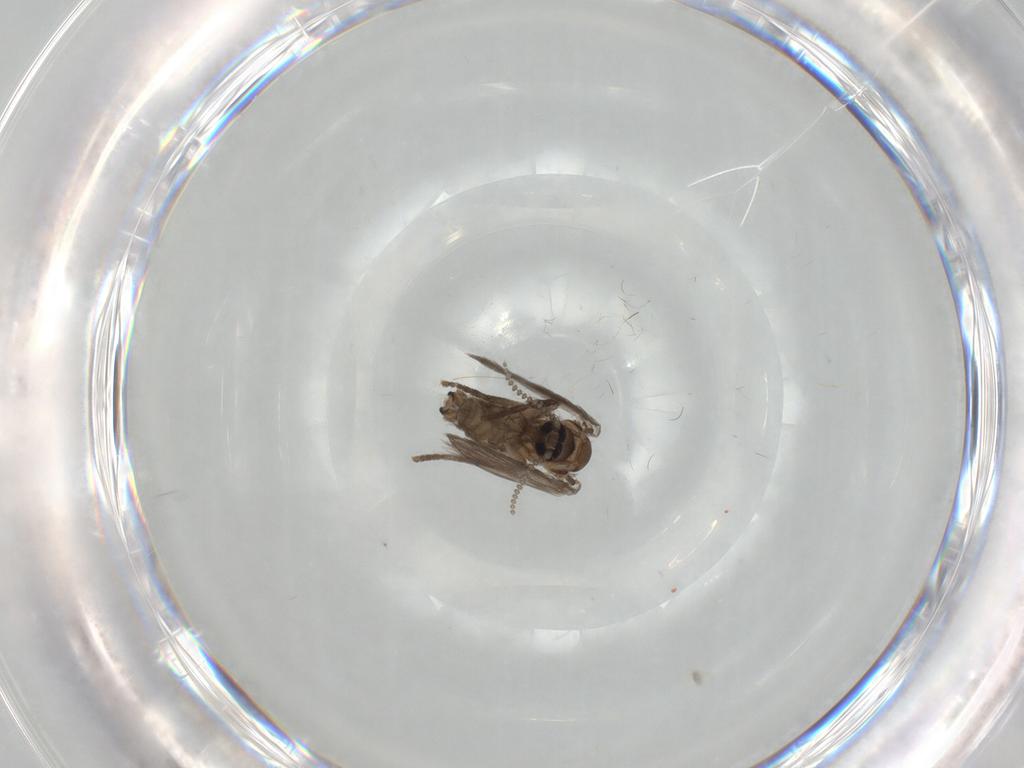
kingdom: Animalia
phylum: Arthropoda
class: Insecta
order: Diptera
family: Psychodidae
